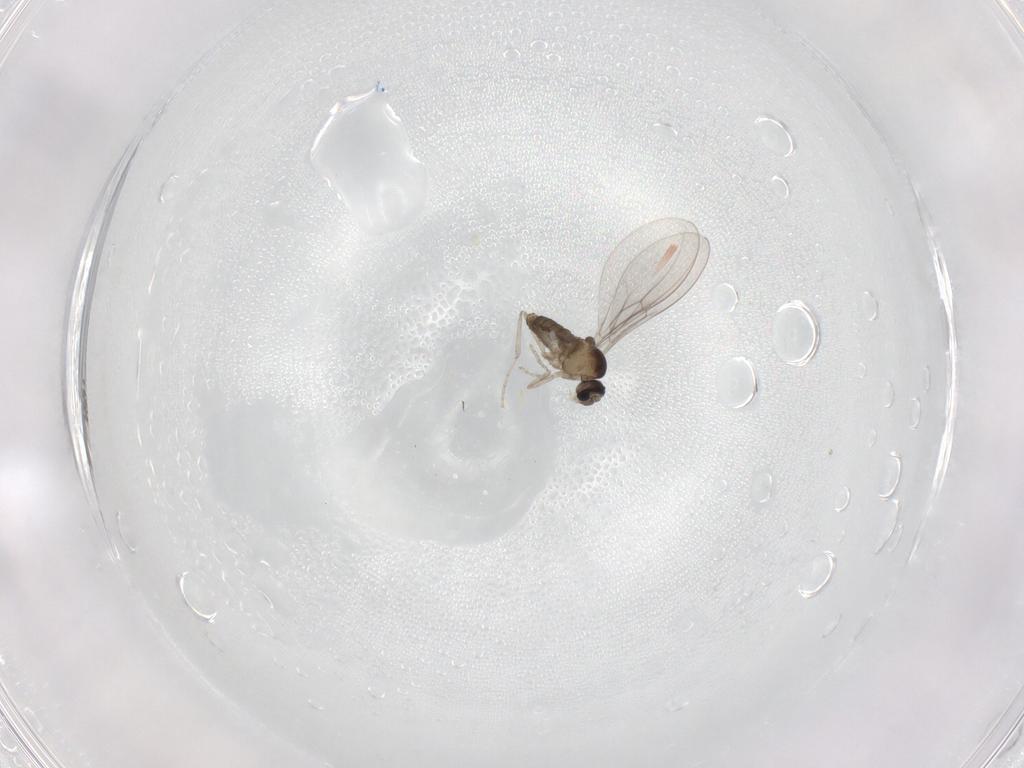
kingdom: Animalia
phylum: Arthropoda
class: Insecta
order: Diptera
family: Cecidomyiidae
